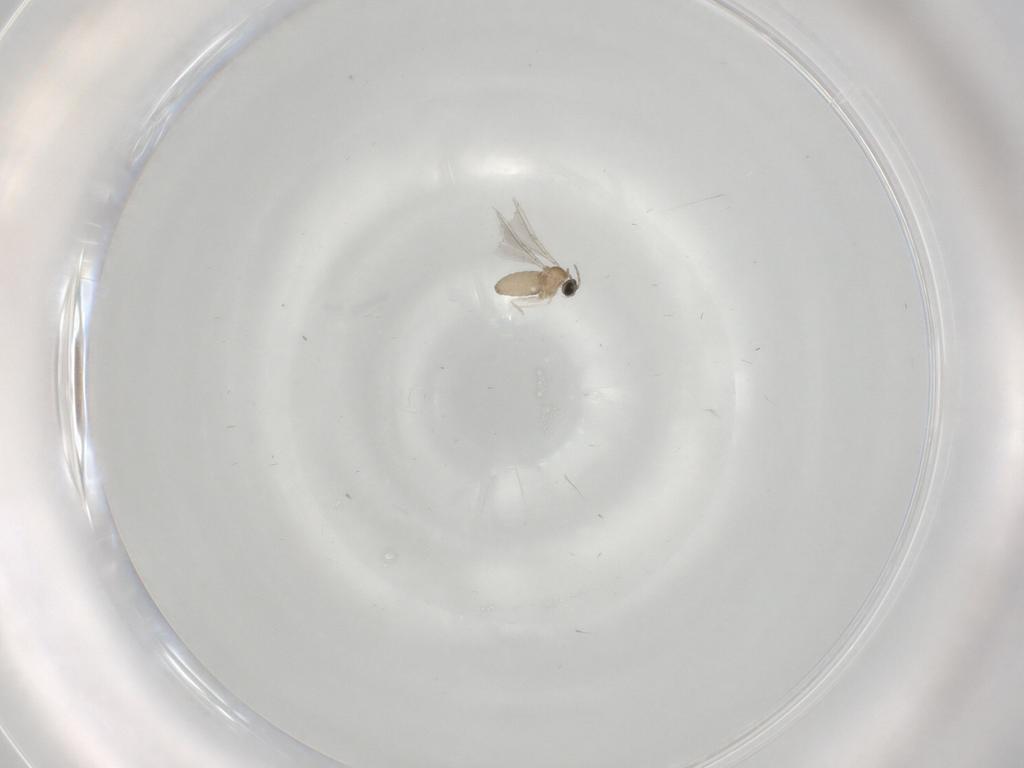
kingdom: Animalia
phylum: Arthropoda
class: Insecta
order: Diptera
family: Cecidomyiidae
